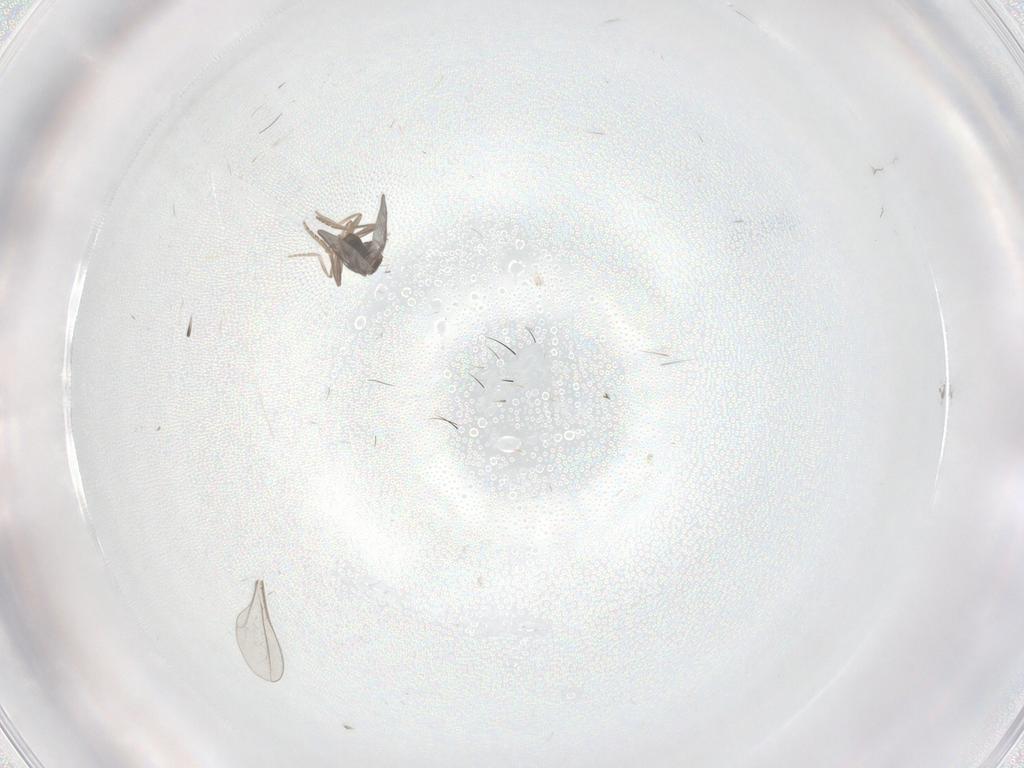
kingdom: Animalia
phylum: Arthropoda
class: Insecta
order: Diptera
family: Cecidomyiidae
